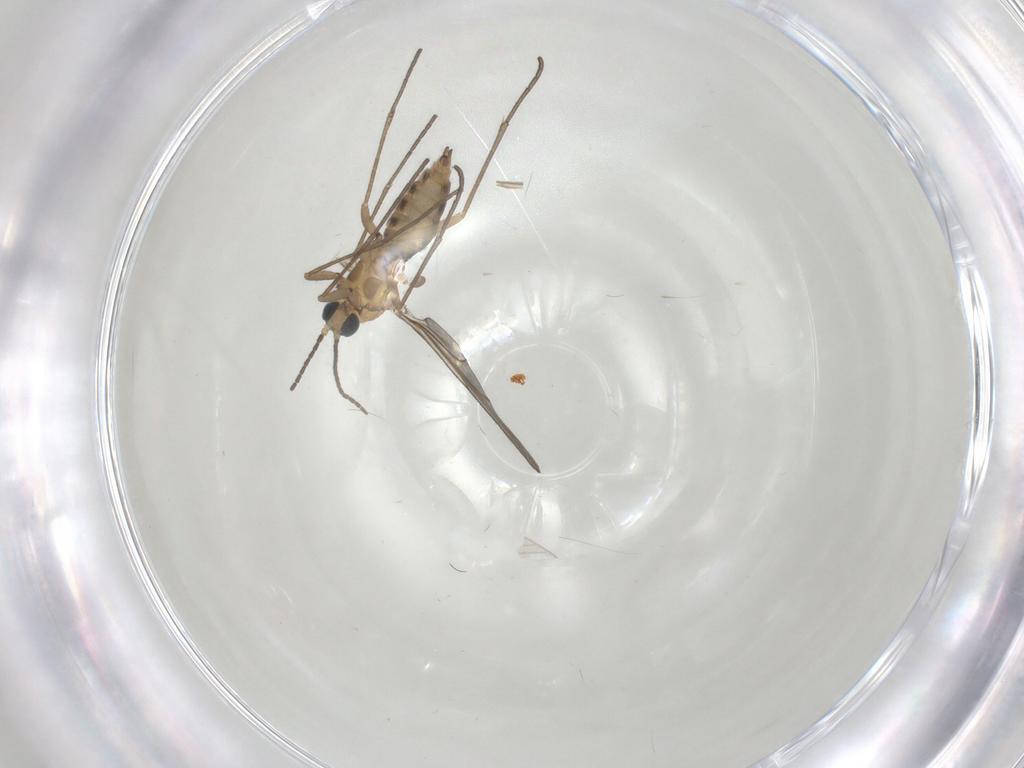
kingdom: Animalia
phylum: Arthropoda
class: Insecta
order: Diptera
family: Sciaridae
